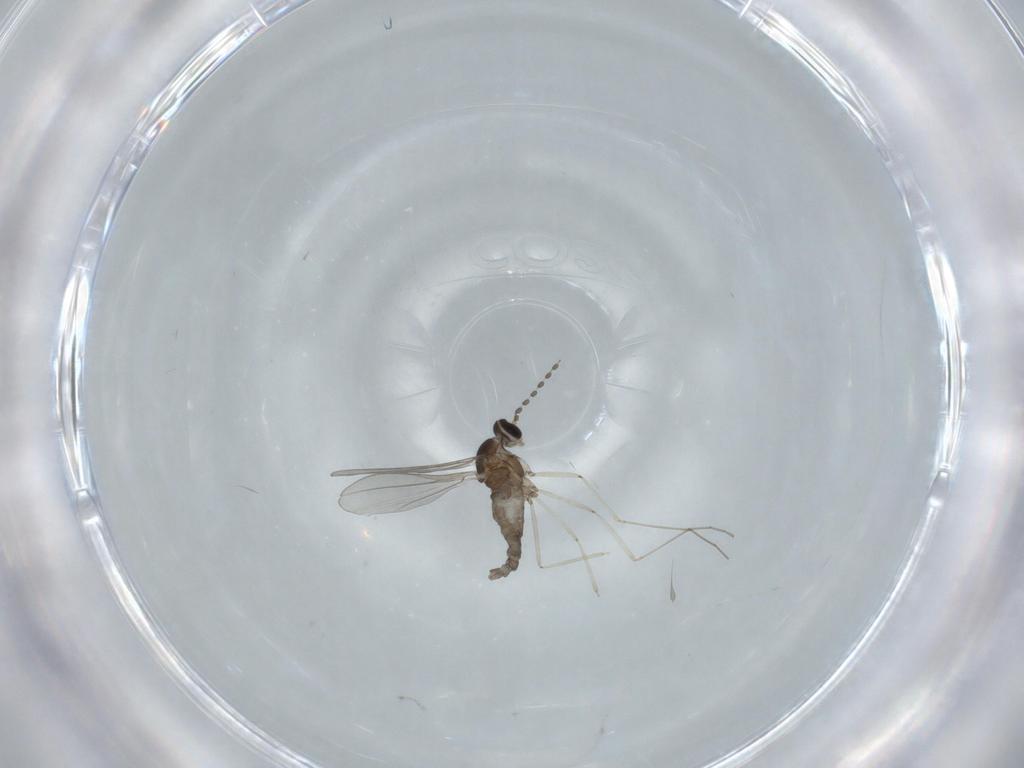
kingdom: Animalia
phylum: Arthropoda
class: Insecta
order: Diptera
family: Cecidomyiidae
